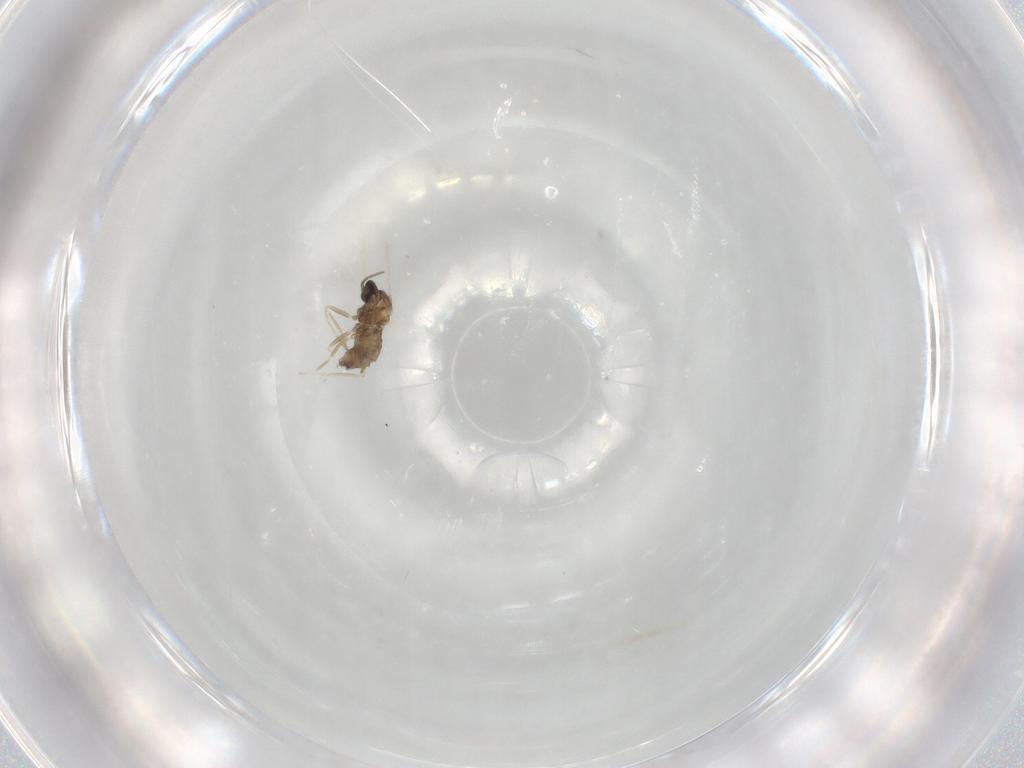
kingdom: Animalia
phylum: Arthropoda
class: Insecta
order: Diptera
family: Cecidomyiidae
